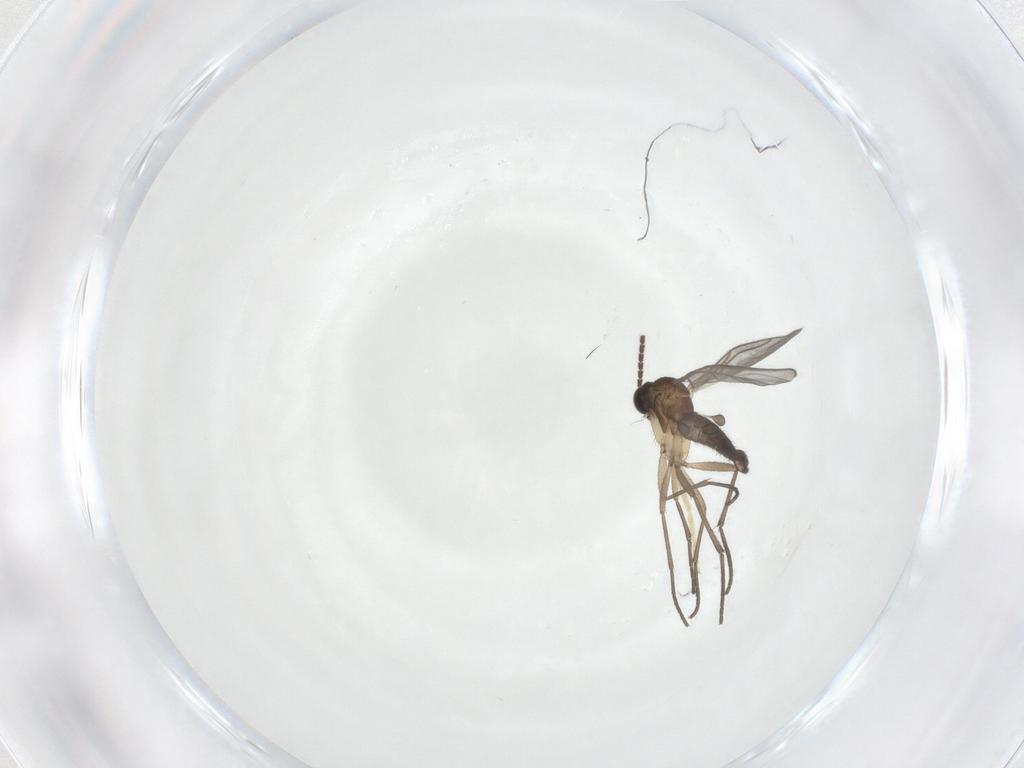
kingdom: Animalia
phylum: Arthropoda
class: Insecta
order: Diptera
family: Chironomidae
